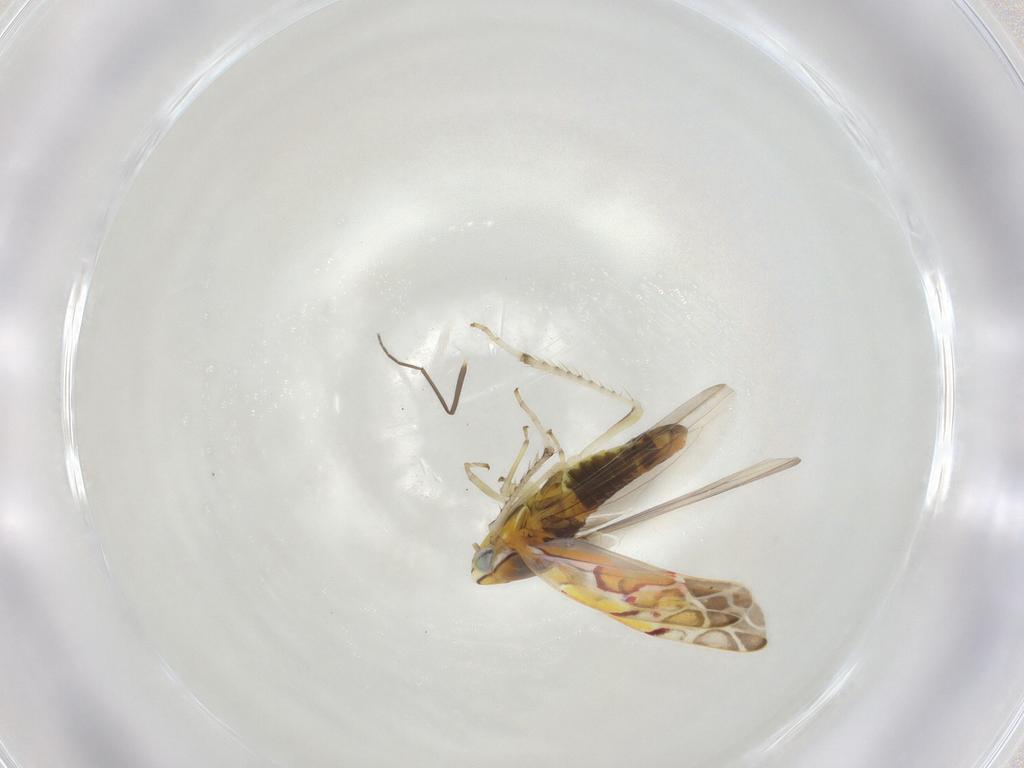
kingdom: Animalia
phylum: Arthropoda
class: Insecta
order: Hemiptera
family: Cicadellidae
